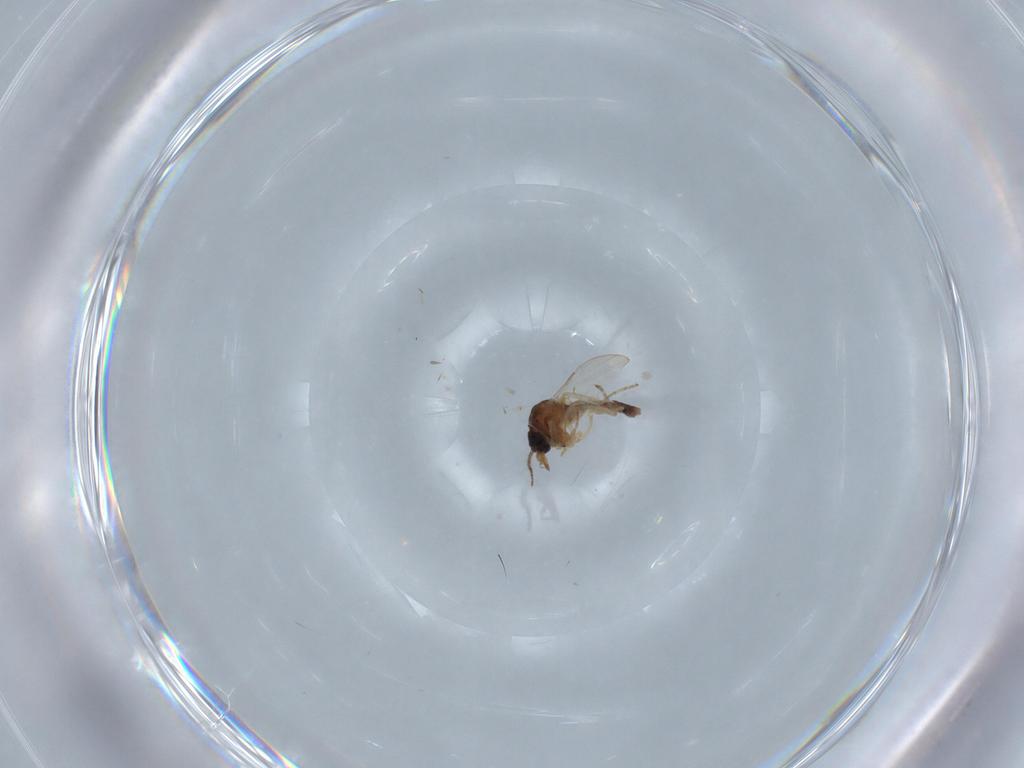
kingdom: Animalia
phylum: Arthropoda
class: Insecta
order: Diptera
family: Ceratopogonidae
